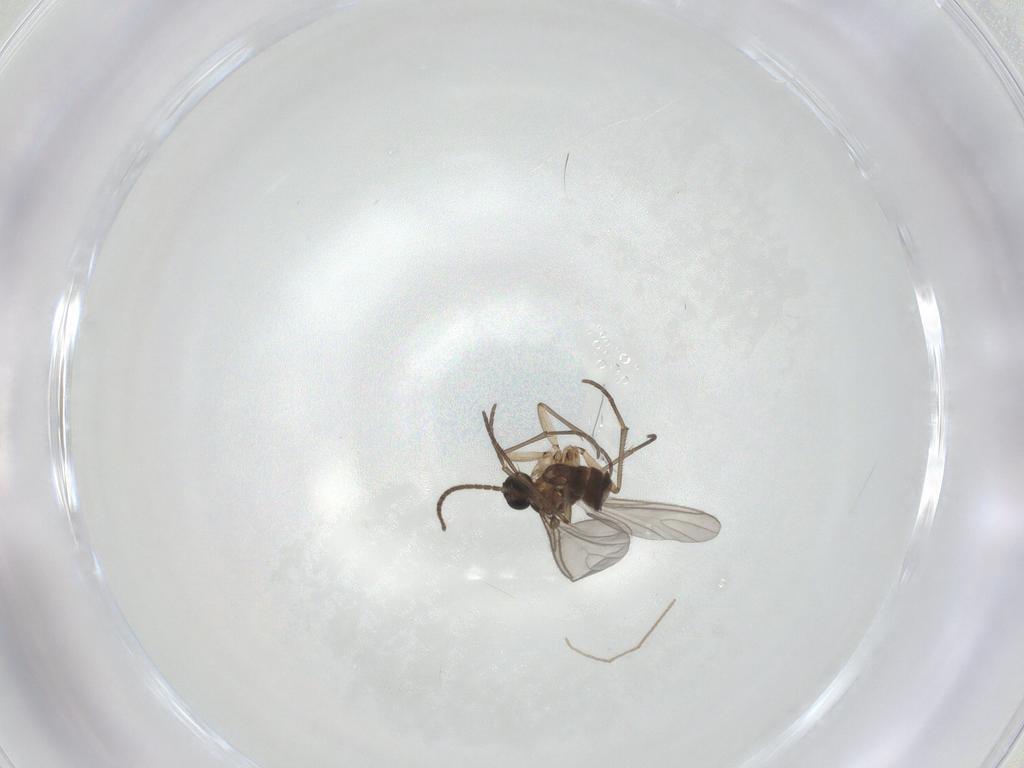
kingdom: Animalia
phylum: Arthropoda
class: Insecta
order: Diptera
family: Sciaridae
